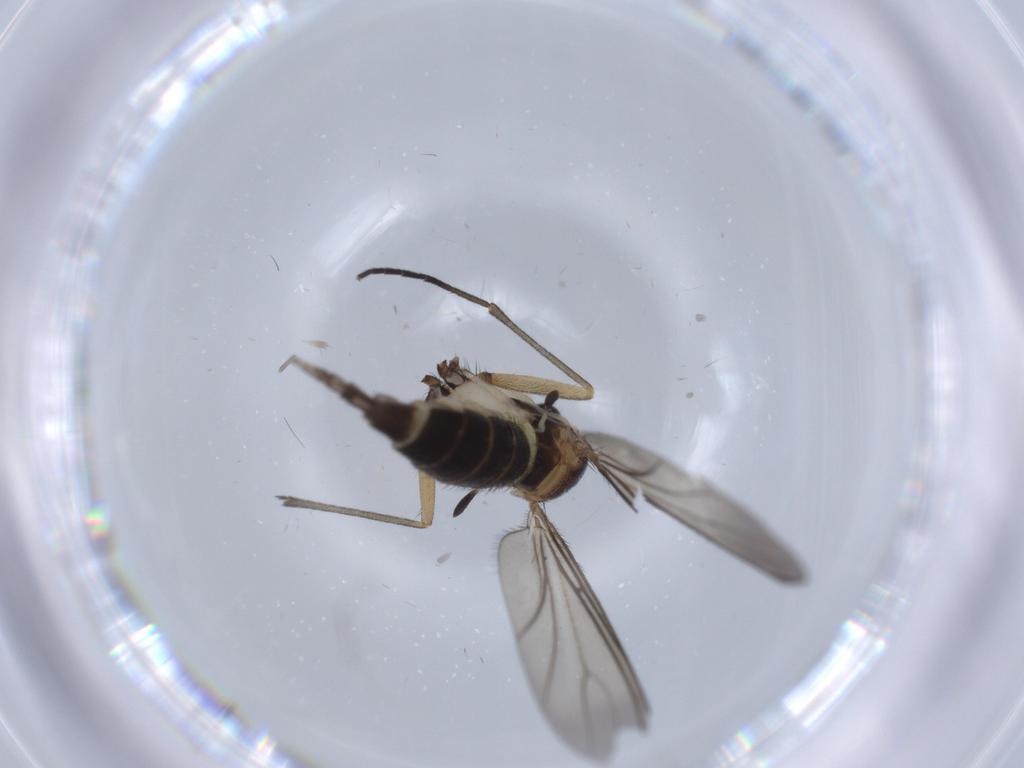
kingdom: Animalia
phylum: Arthropoda
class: Insecta
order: Diptera
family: Sciaridae
